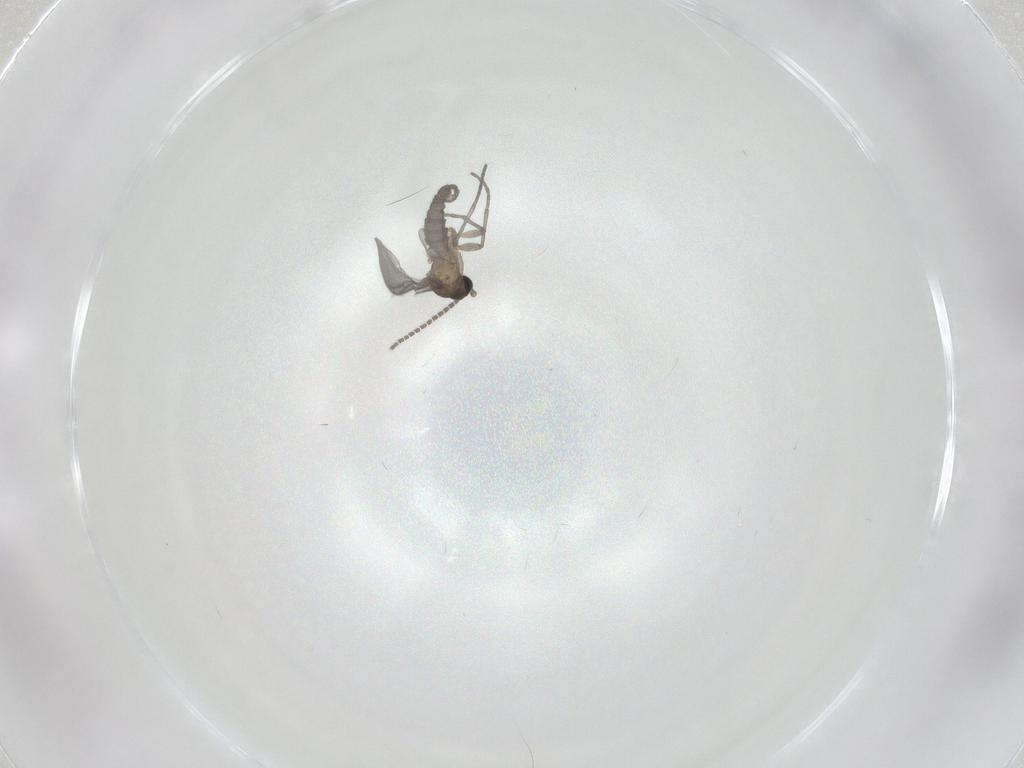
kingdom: Animalia
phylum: Arthropoda
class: Insecta
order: Diptera
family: Sciaridae
